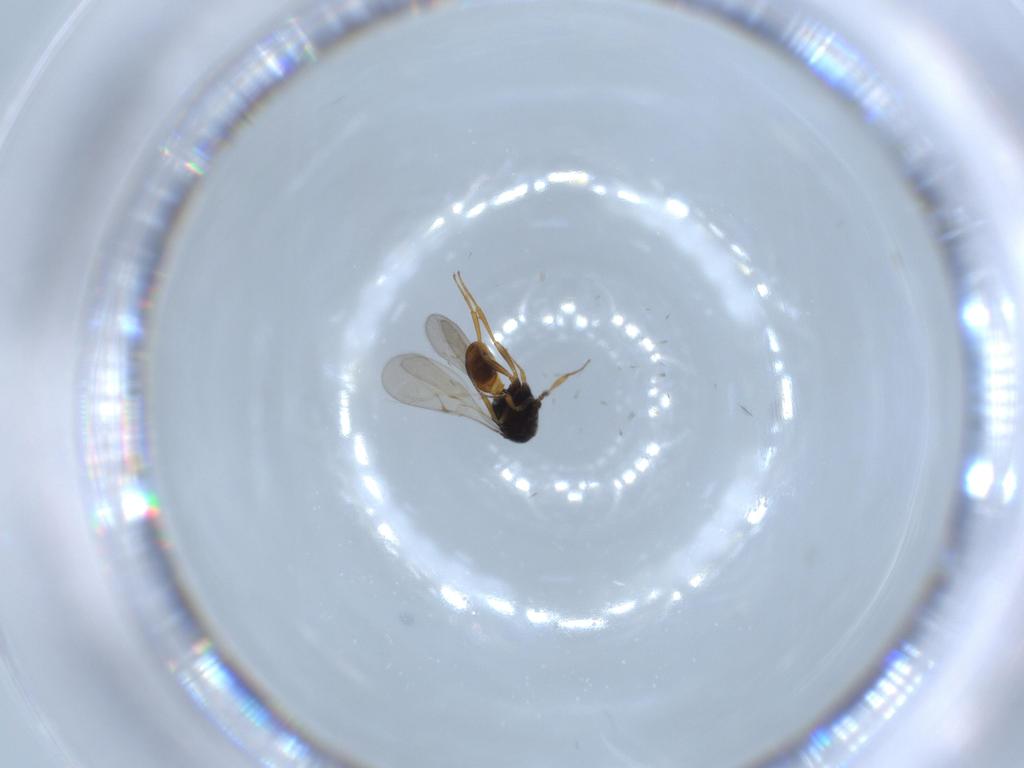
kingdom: Animalia
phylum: Arthropoda
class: Insecta
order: Hymenoptera
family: Scelionidae
